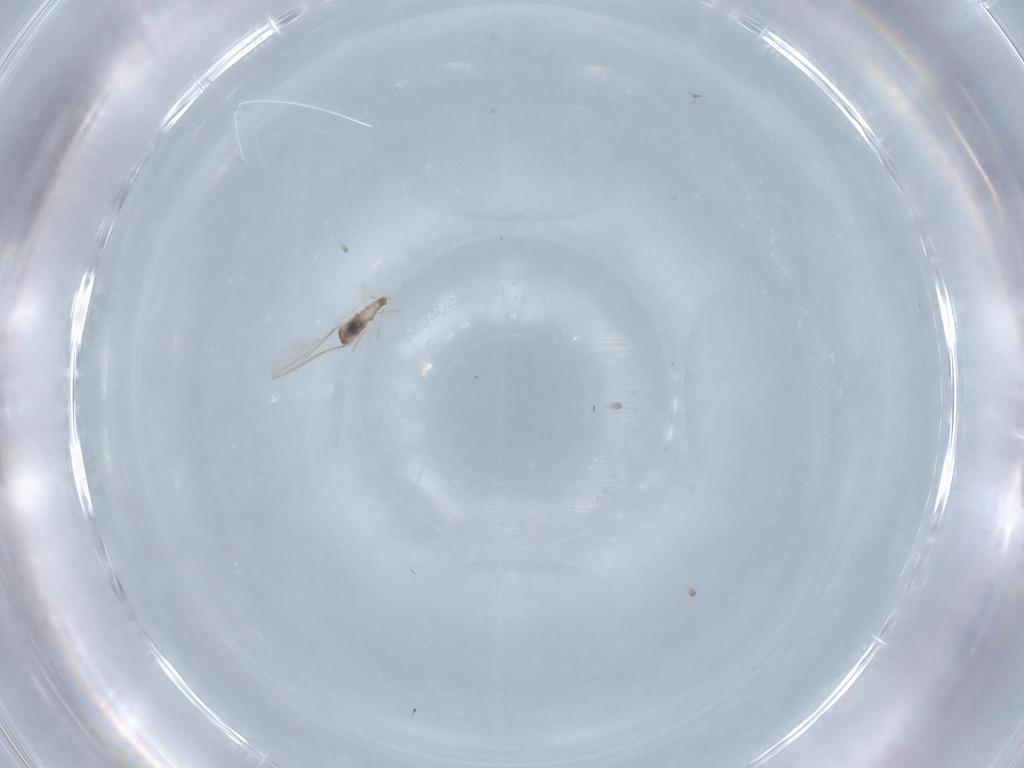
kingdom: Animalia
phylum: Arthropoda
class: Insecta
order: Diptera
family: Cecidomyiidae
